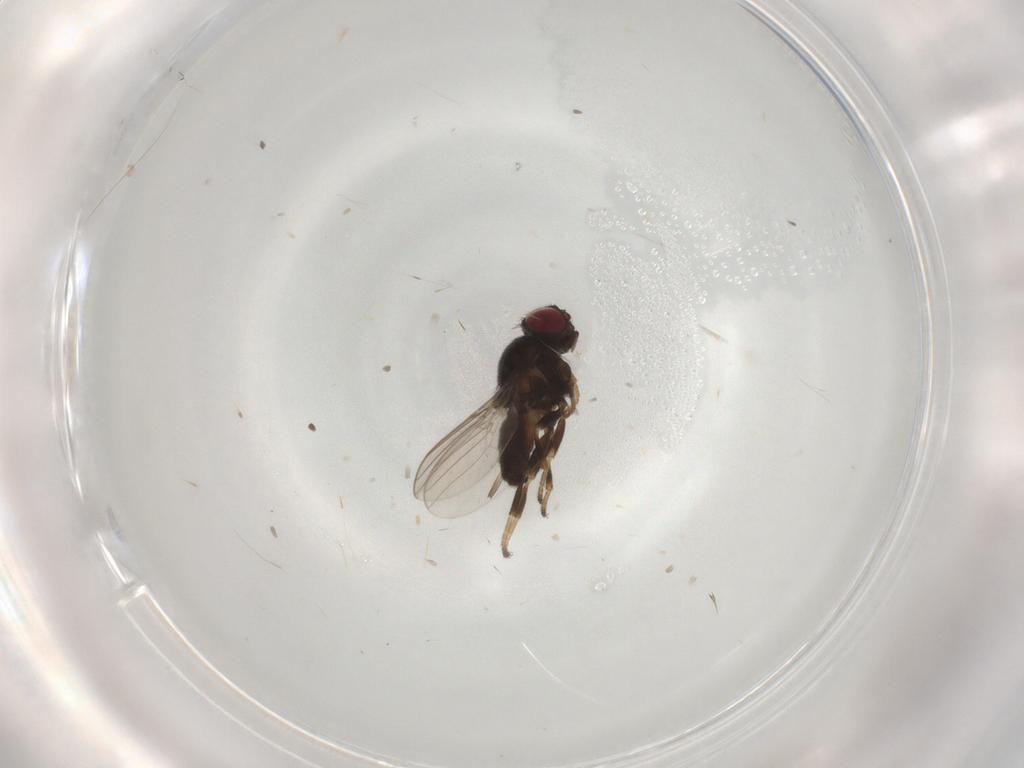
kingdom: Animalia
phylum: Arthropoda
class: Insecta
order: Diptera
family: Chloropidae
